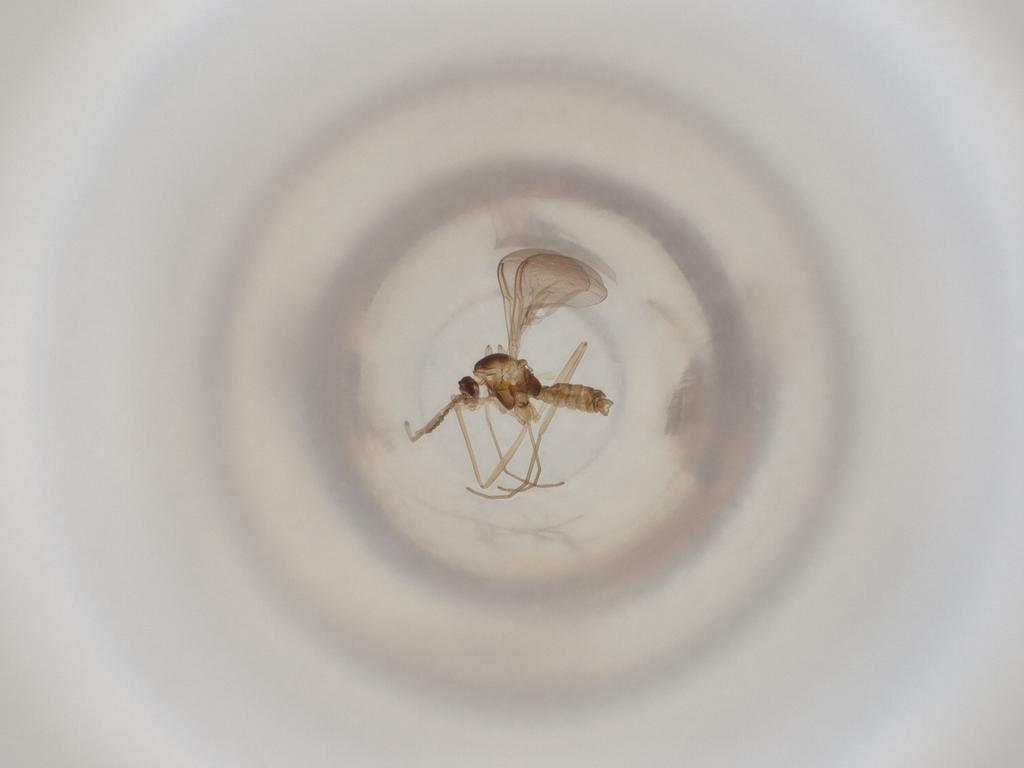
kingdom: Animalia
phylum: Arthropoda
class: Insecta
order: Diptera
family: Cecidomyiidae
